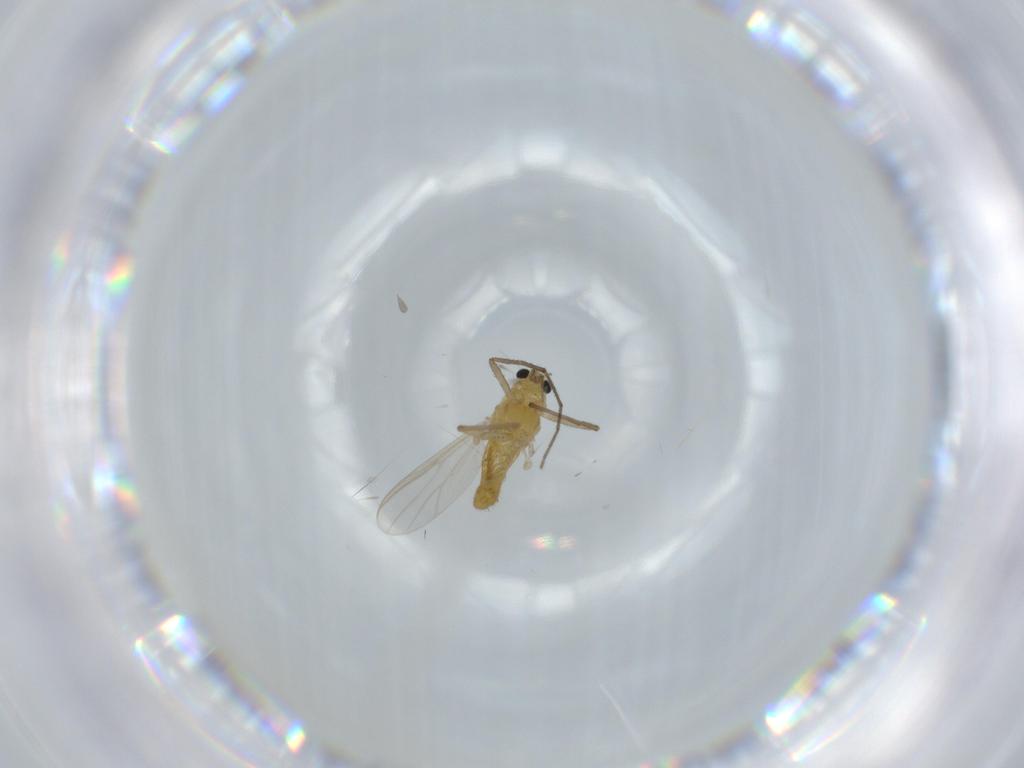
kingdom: Animalia
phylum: Arthropoda
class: Insecta
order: Diptera
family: Chironomidae
